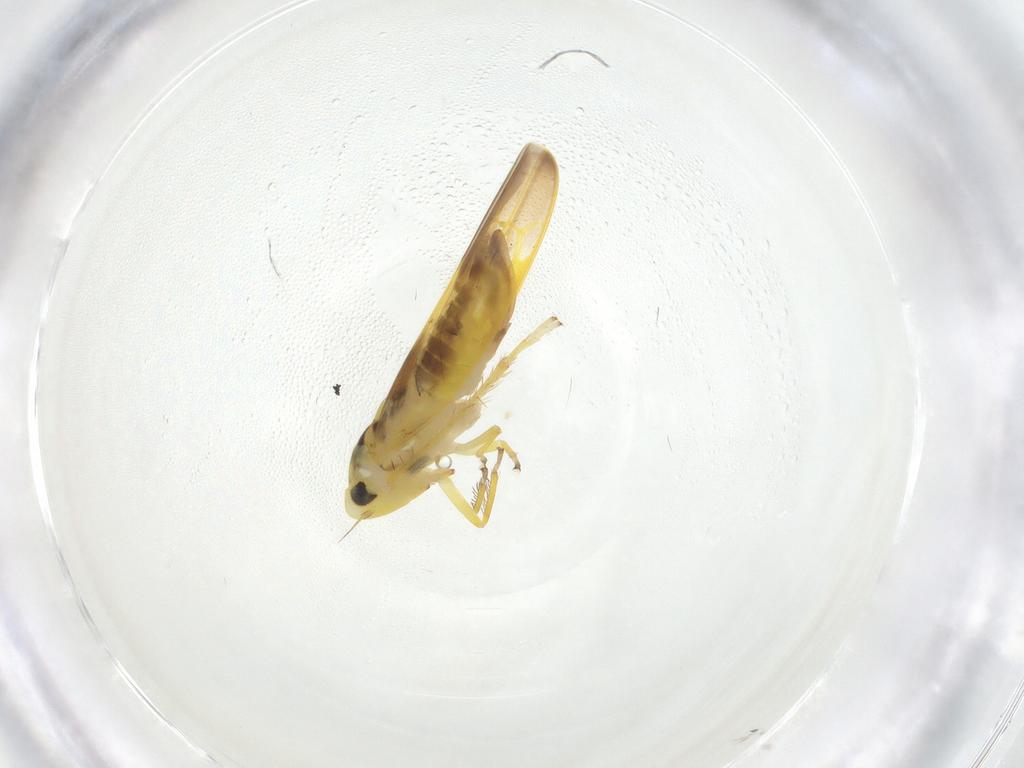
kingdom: Animalia
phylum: Arthropoda
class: Insecta
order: Hemiptera
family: Cicadellidae
